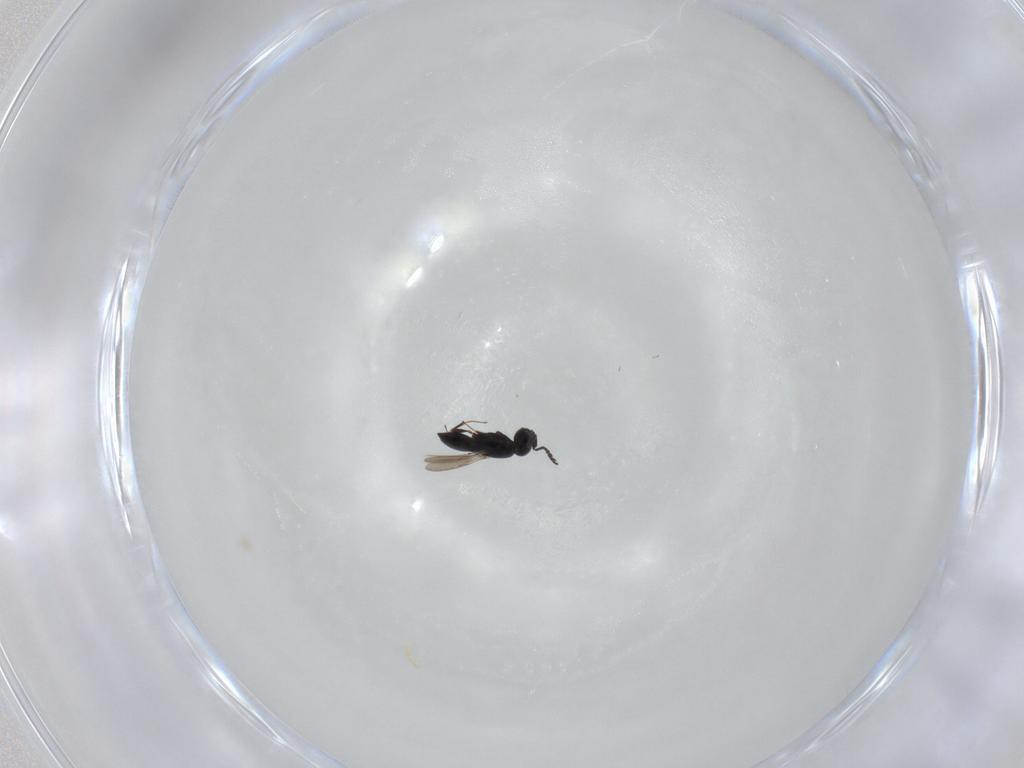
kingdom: Animalia
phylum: Arthropoda
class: Insecta
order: Hymenoptera
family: Scelionidae
